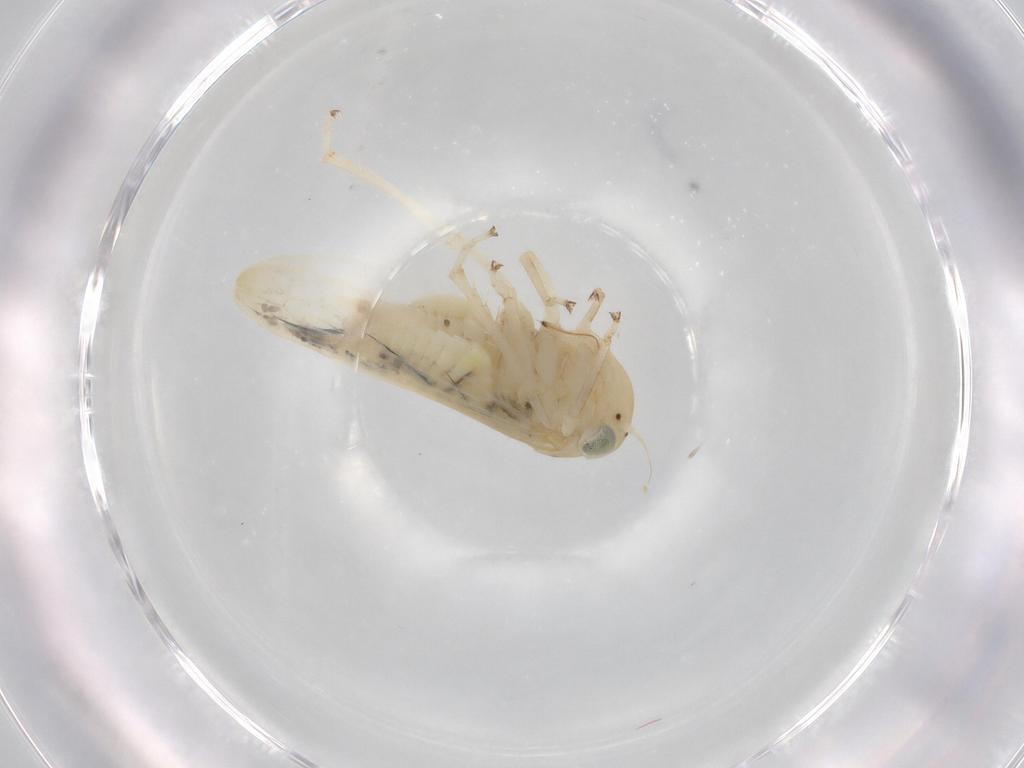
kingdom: Animalia
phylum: Arthropoda
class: Insecta
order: Hemiptera
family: Cicadellidae
